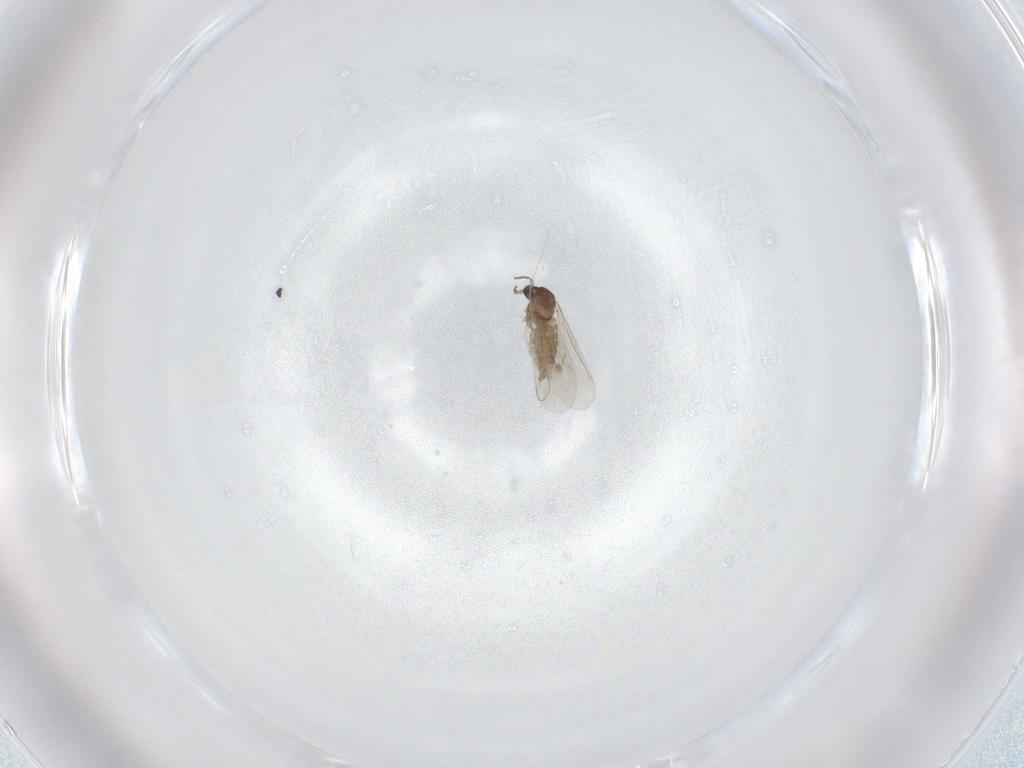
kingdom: Animalia
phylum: Arthropoda
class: Insecta
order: Diptera
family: Cecidomyiidae
